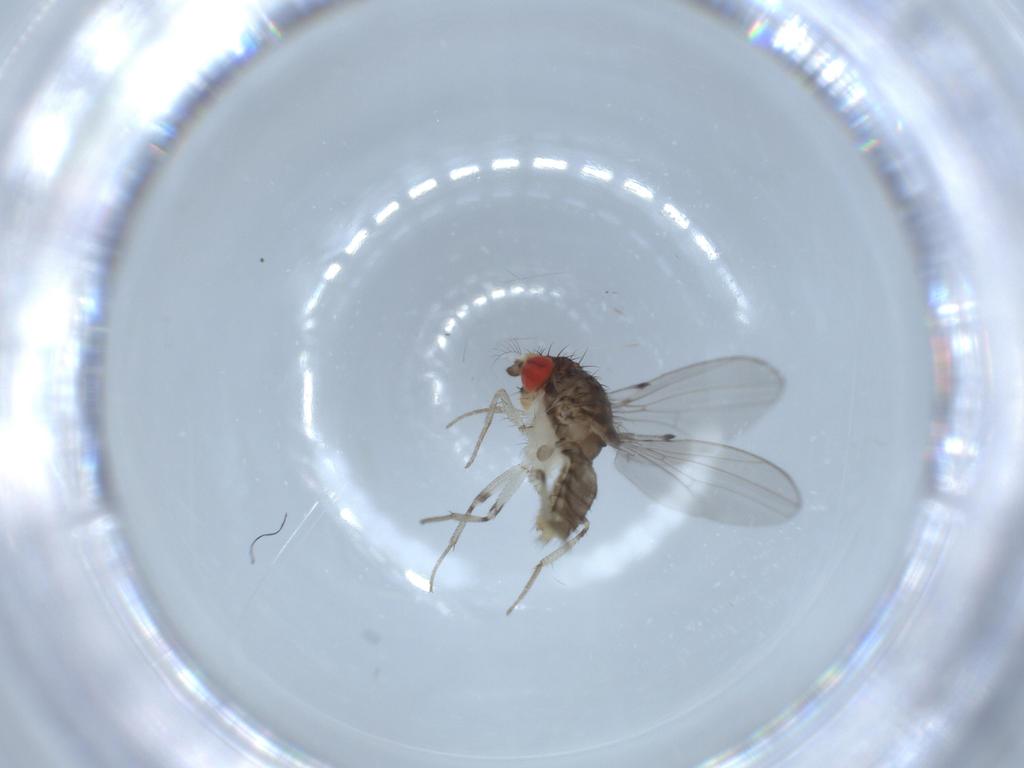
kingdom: Animalia
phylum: Arthropoda
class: Insecta
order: Diptera
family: Drosophilidae
